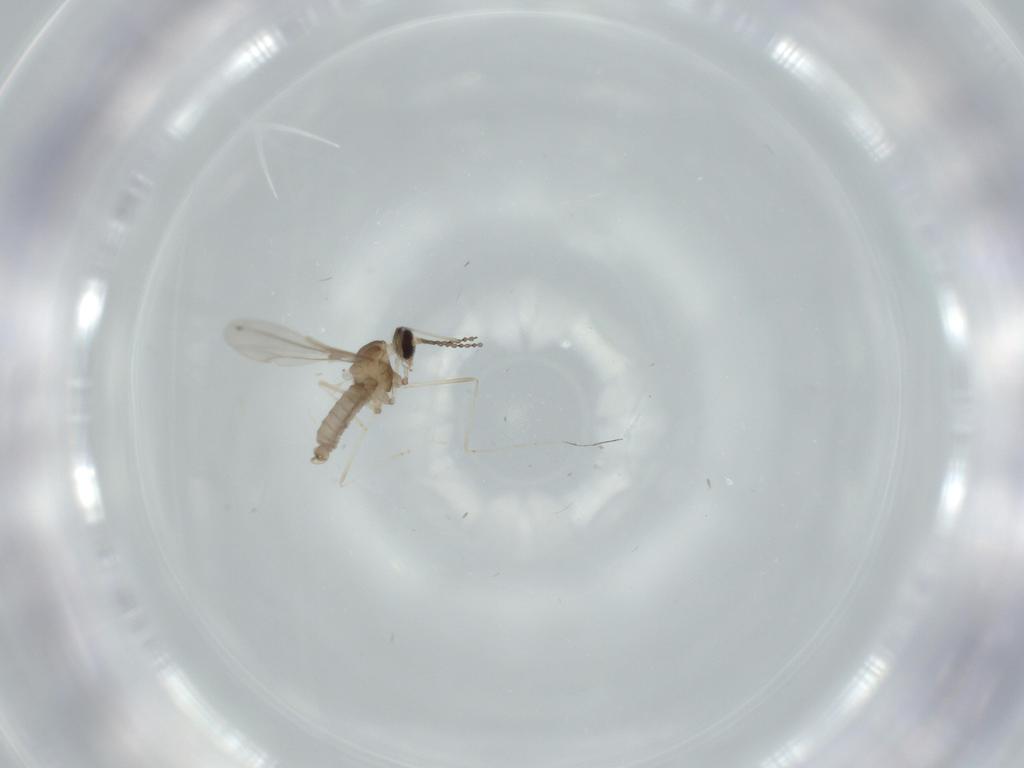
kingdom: Animalia
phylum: Arthropoda
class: Insecta
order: Diptera
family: Cecidomyiidae
